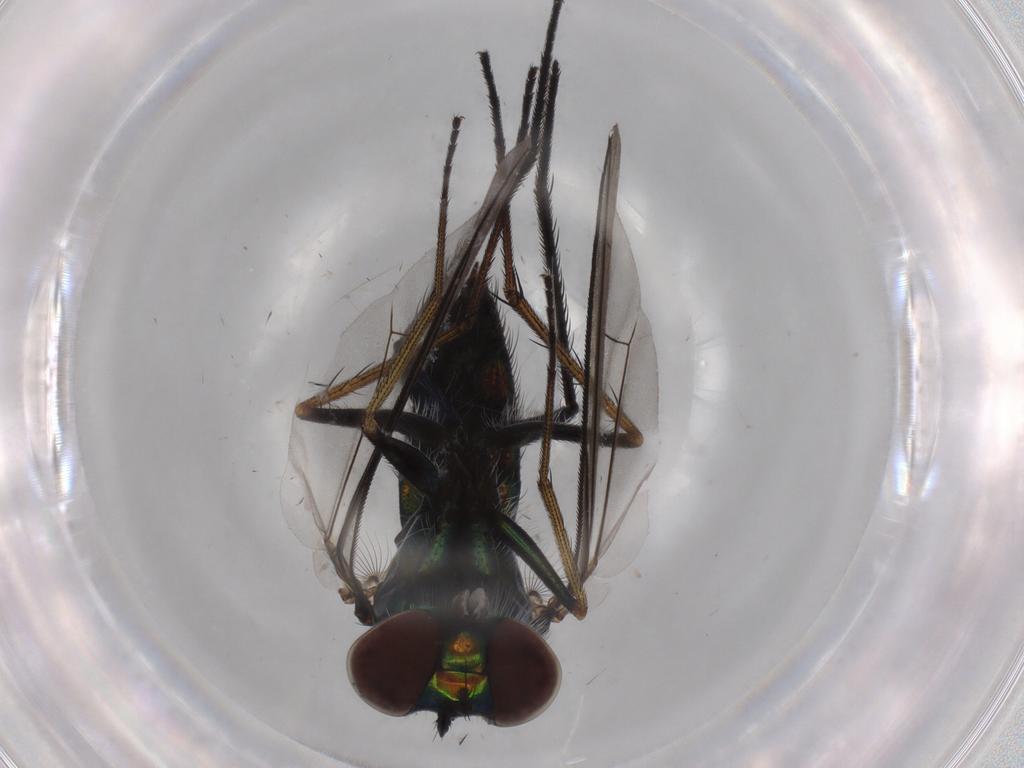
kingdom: Animalia
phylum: Arthropoda
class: Insecta
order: Diptera
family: Dolichopodidae
